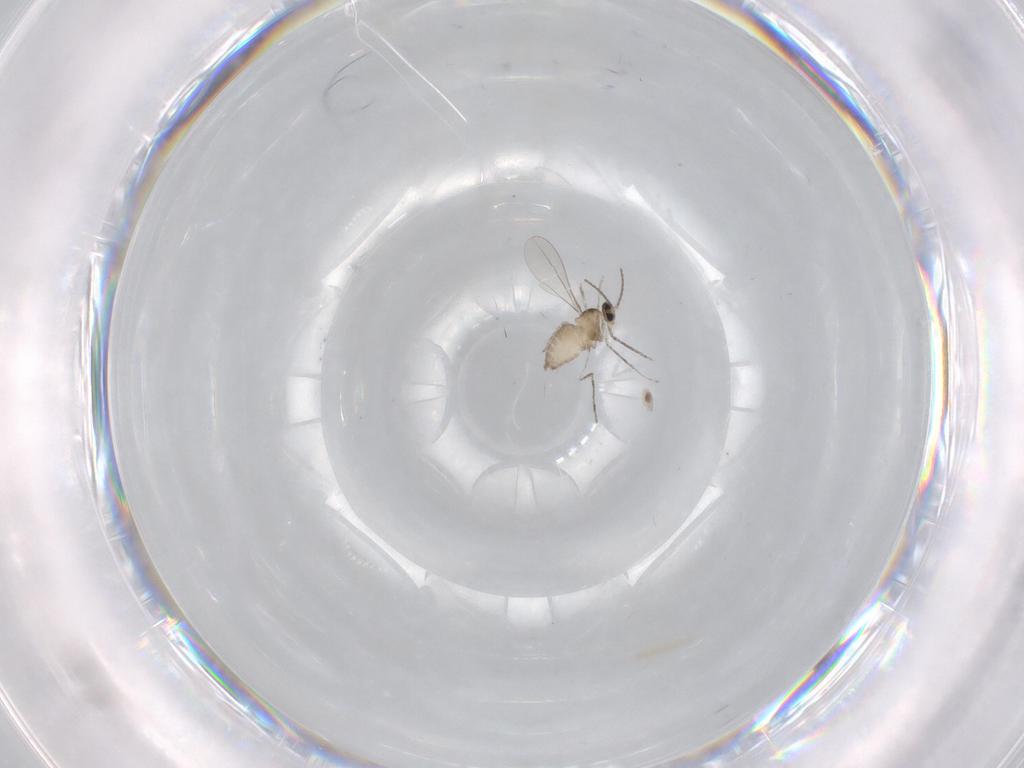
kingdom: Animalia
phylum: Arthropoda
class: Insecta
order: Diptera
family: Cecidomyiidae
